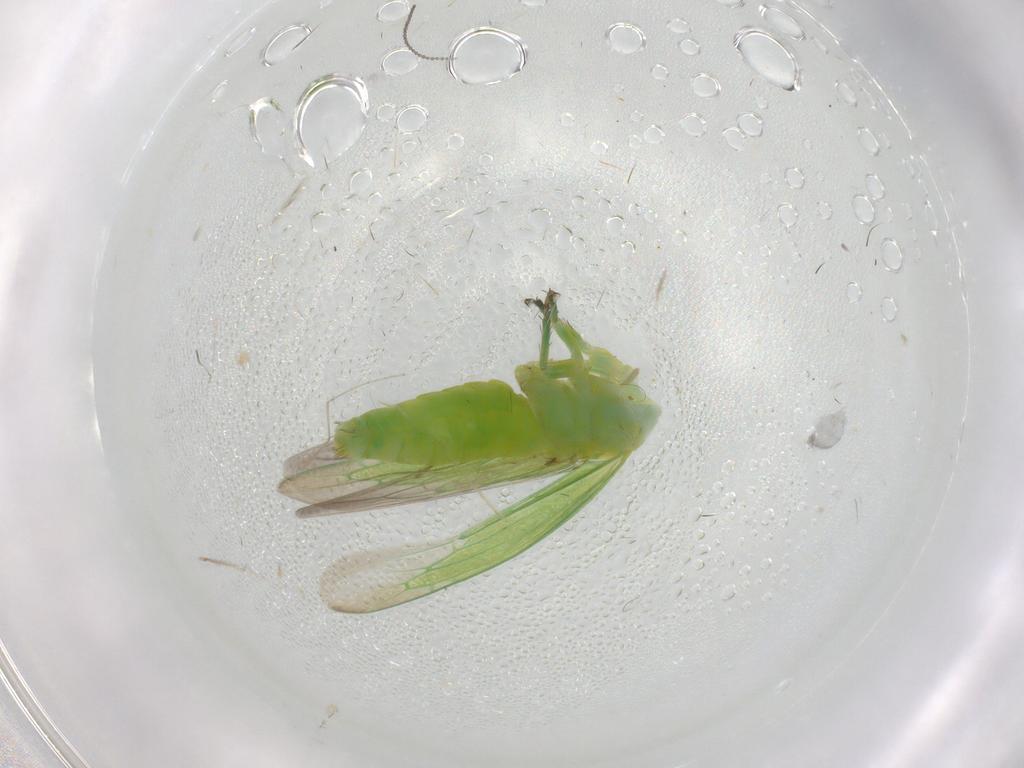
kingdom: Animalia
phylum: Arthropoda
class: Insecta
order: Hemiptera
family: Cicadellidae
